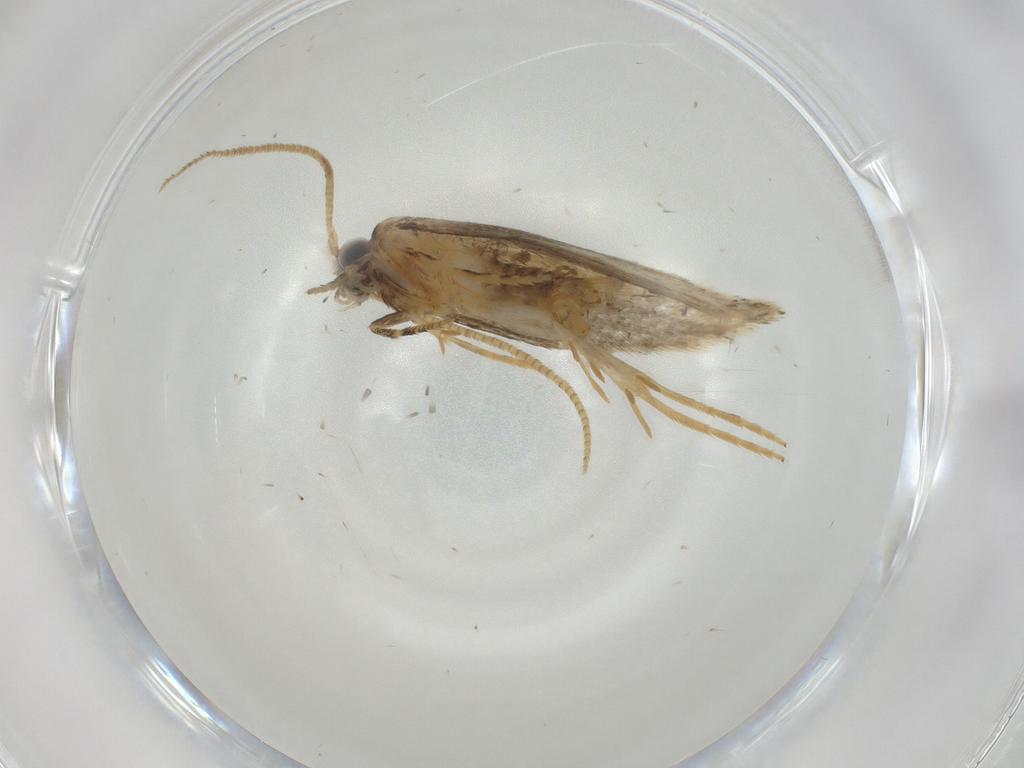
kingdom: Animalia
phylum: Arthropoda
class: Insecta
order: Lepidoptera
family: Tineidae
